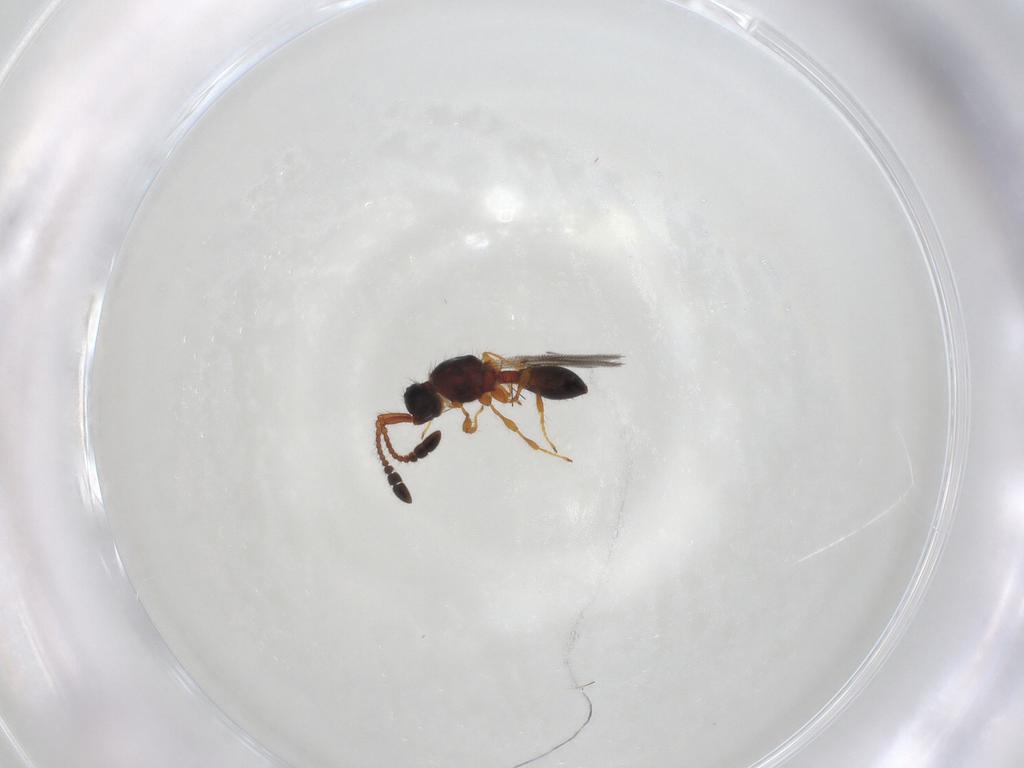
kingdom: Animalia
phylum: Arthropoda
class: Insecta
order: Hymenoptera
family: Diapriidae
